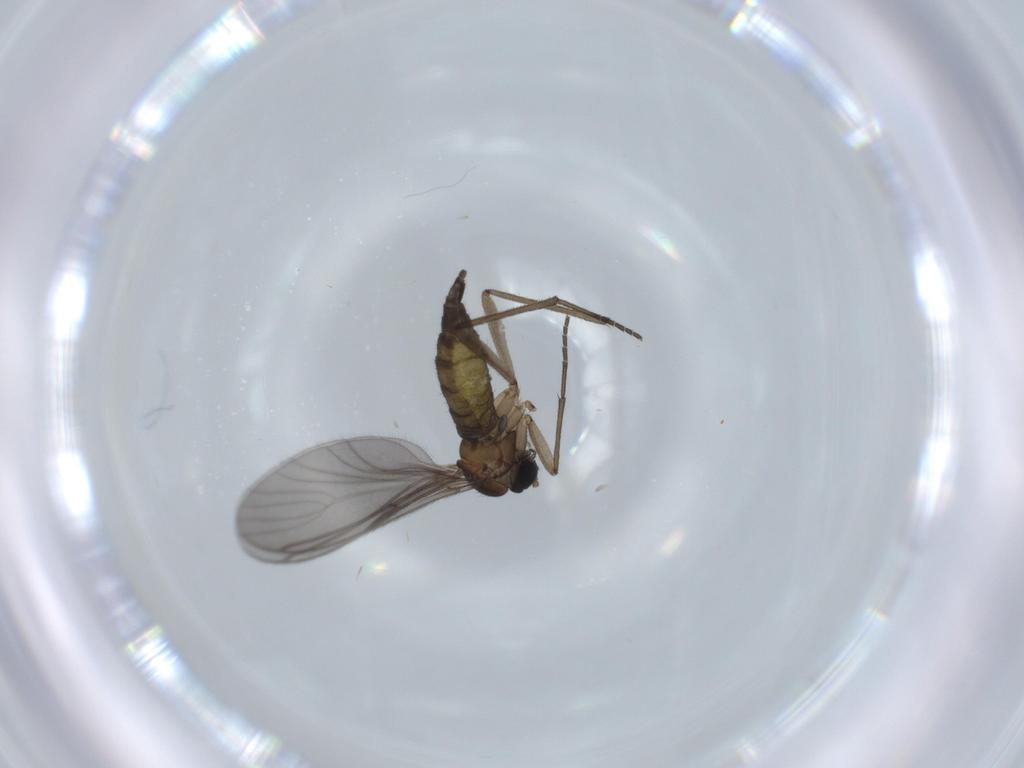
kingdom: Animalia
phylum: Arthropoda
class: Insecta
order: Diptera
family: Sciaridae
